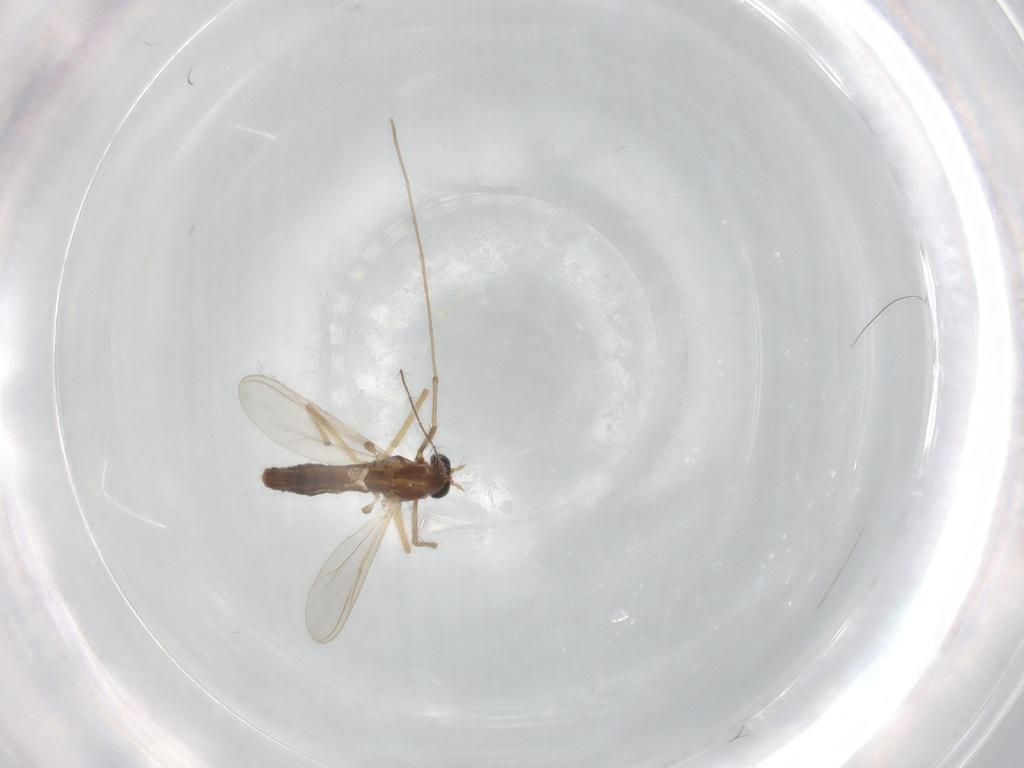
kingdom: Animalia
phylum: Arthropoda
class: Insecta
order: Diptera
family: Chironomidae
